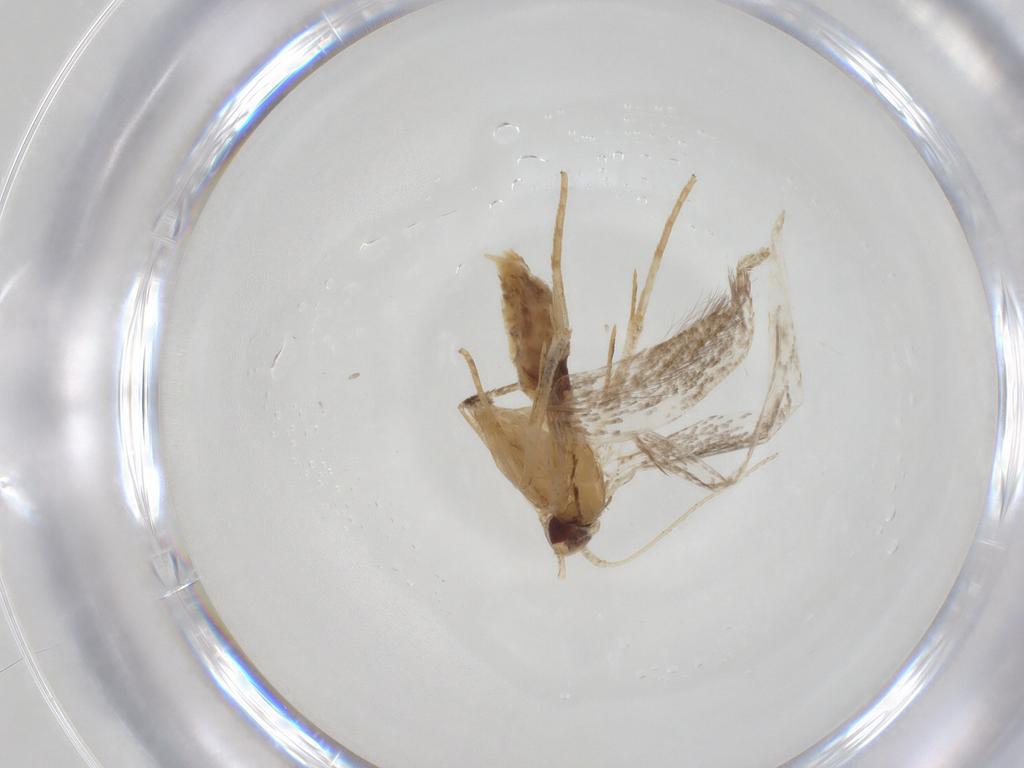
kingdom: Animalia
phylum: Arthropoda
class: Insecta
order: Lepidoptera
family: Cosmopterigidae
